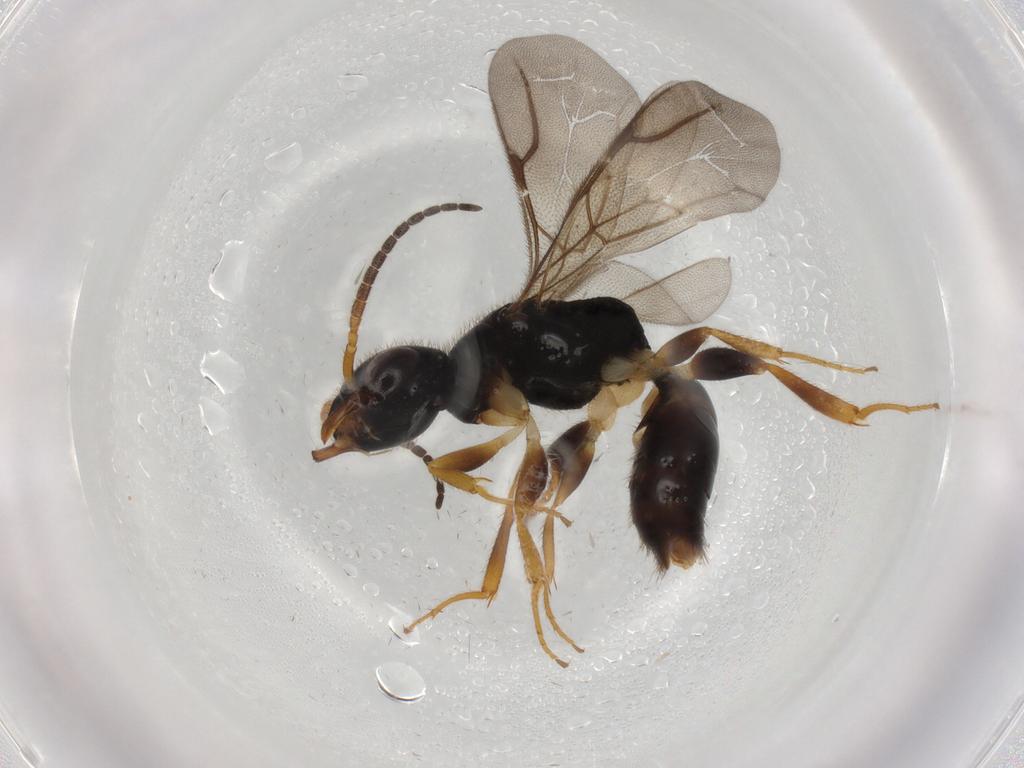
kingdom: Animalia
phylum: Arthropoda
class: Insecta
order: Hymenoptera
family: Bethylidae
